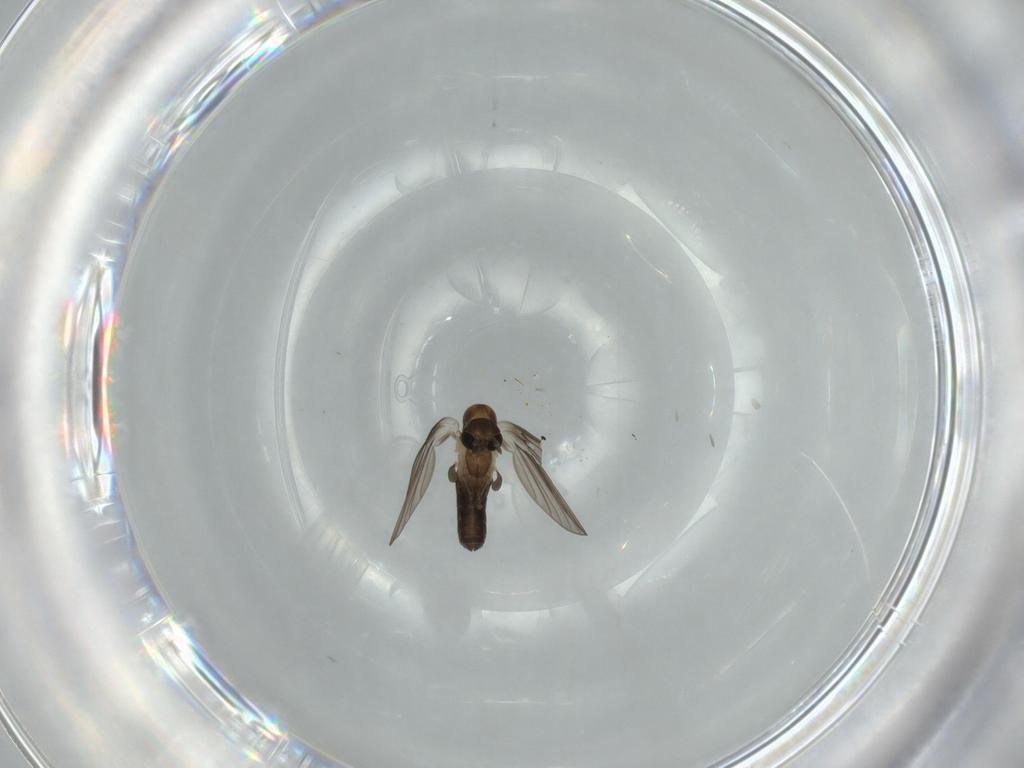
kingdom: Animalia
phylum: Arthropoda
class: Insecta
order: Diptera
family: Psychodidae
